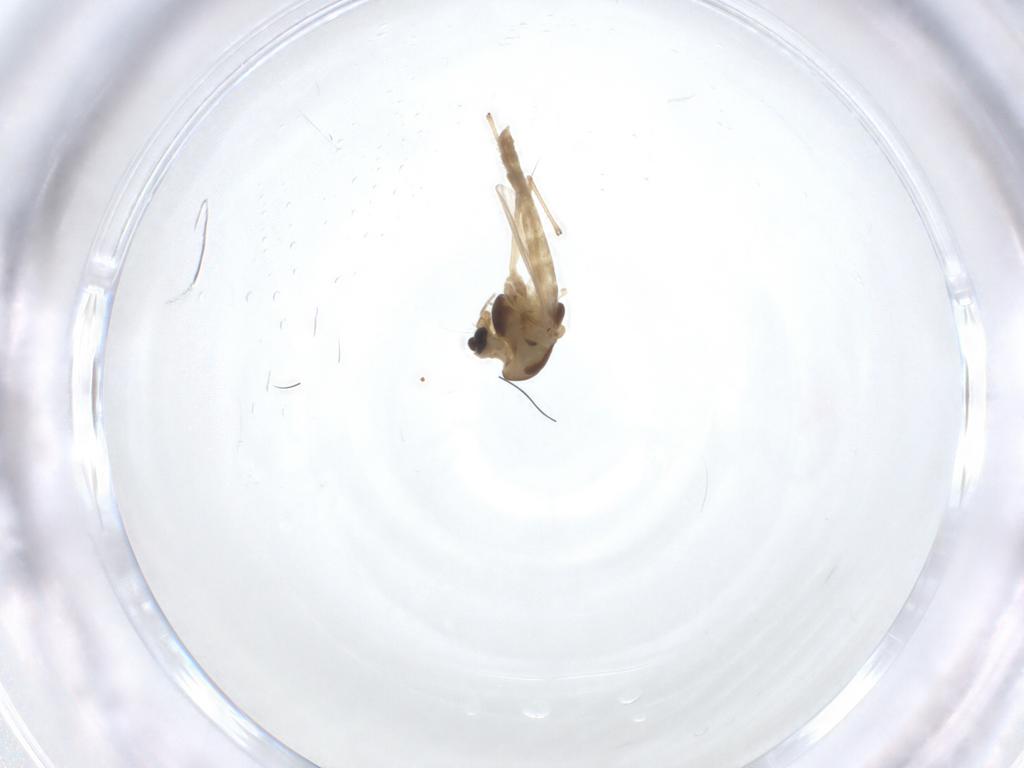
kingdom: Animalia
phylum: Arthropoda
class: Insecta
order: Diptera
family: Chironomidae
